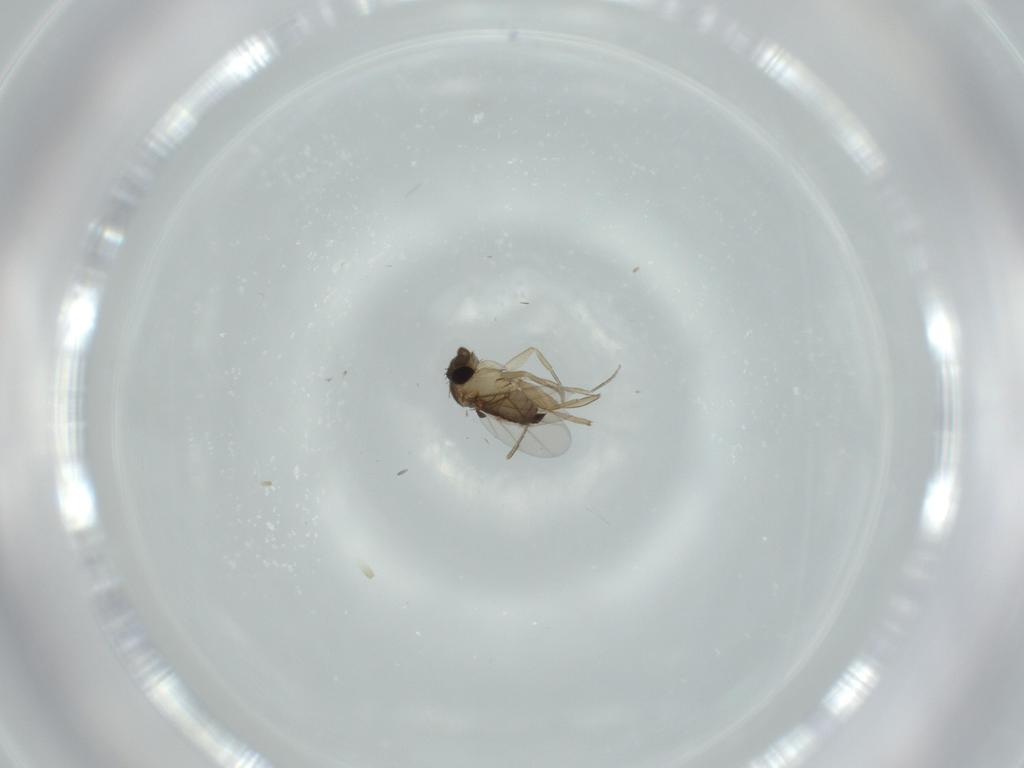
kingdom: Animalia
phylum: Arthropoda
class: Insecta
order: Diptera
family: Phoridae
